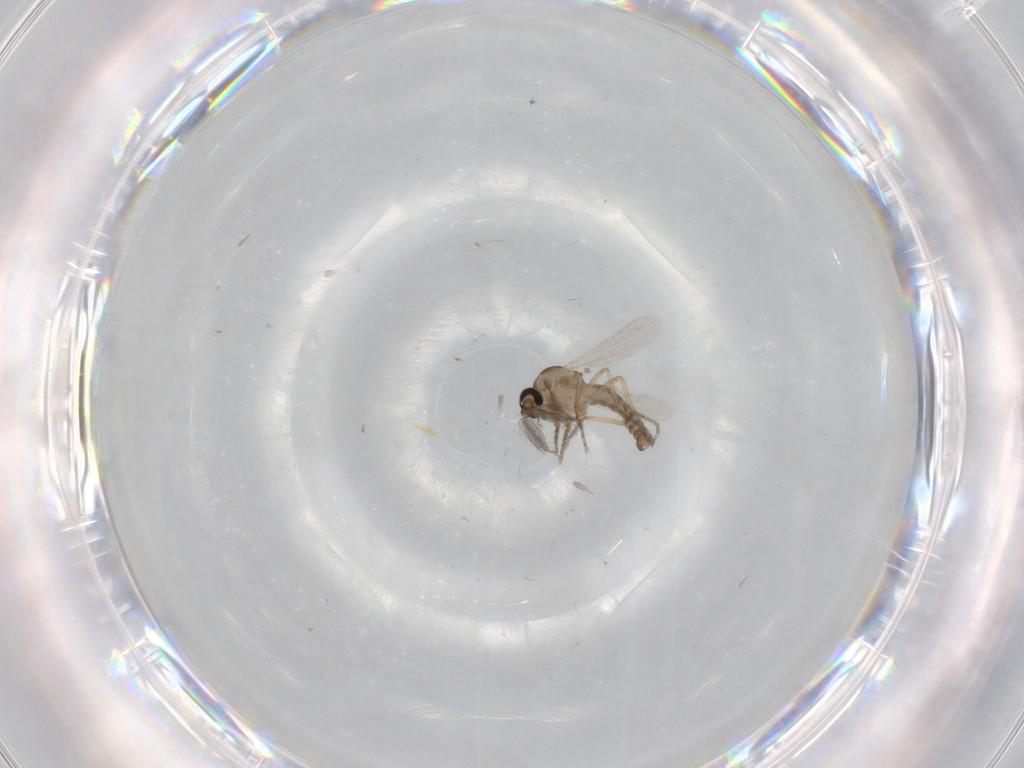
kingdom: Animalia
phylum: Arthropoda
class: Insecta
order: Diptera
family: Ceratopogonidae
